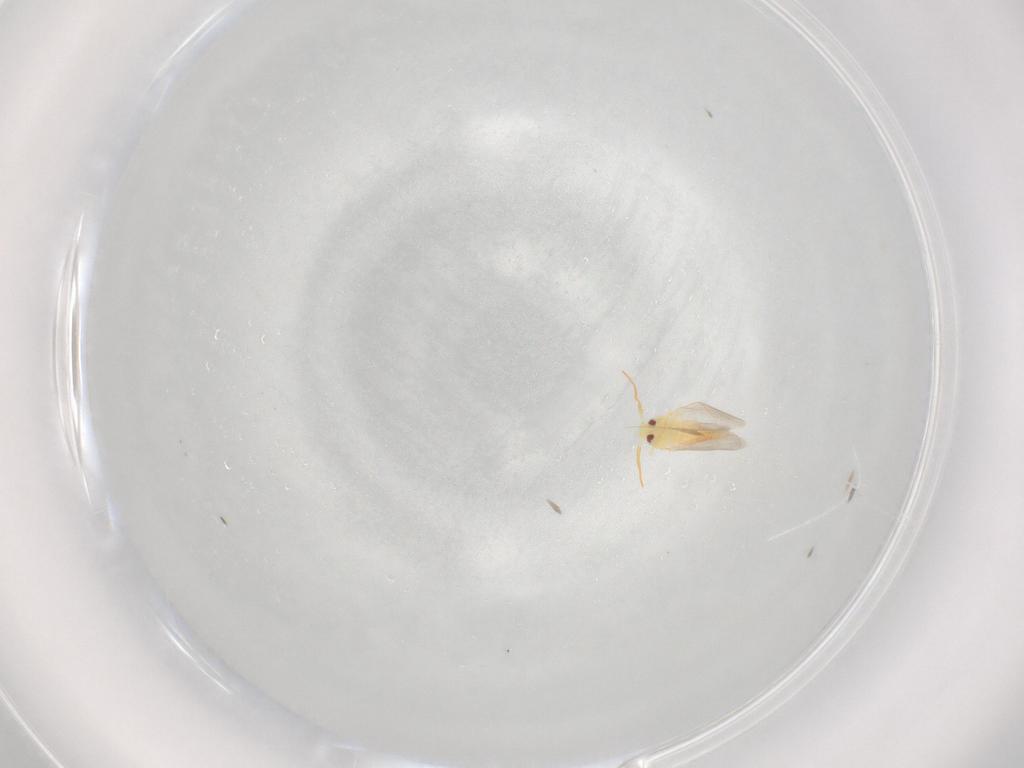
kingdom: Animalia
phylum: Arthropoda
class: Insecta
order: Hemiptera
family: Aleyrodidae
